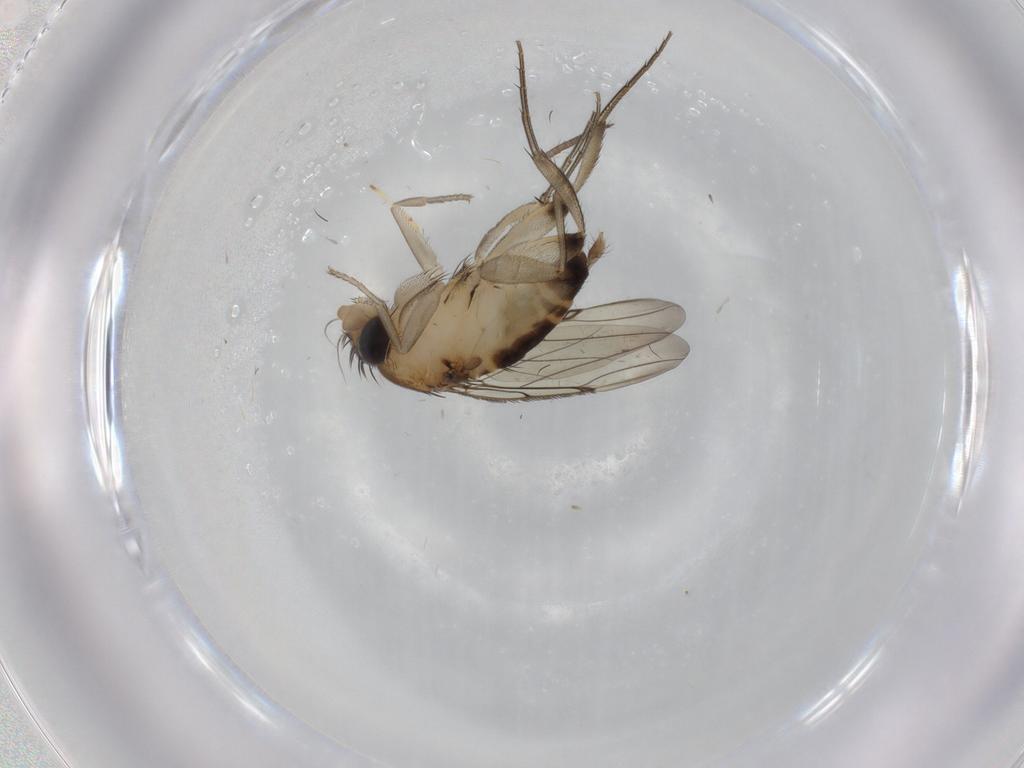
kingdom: Animalia
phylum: Arthropoda
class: Insecta
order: Diptera
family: Phoridae
